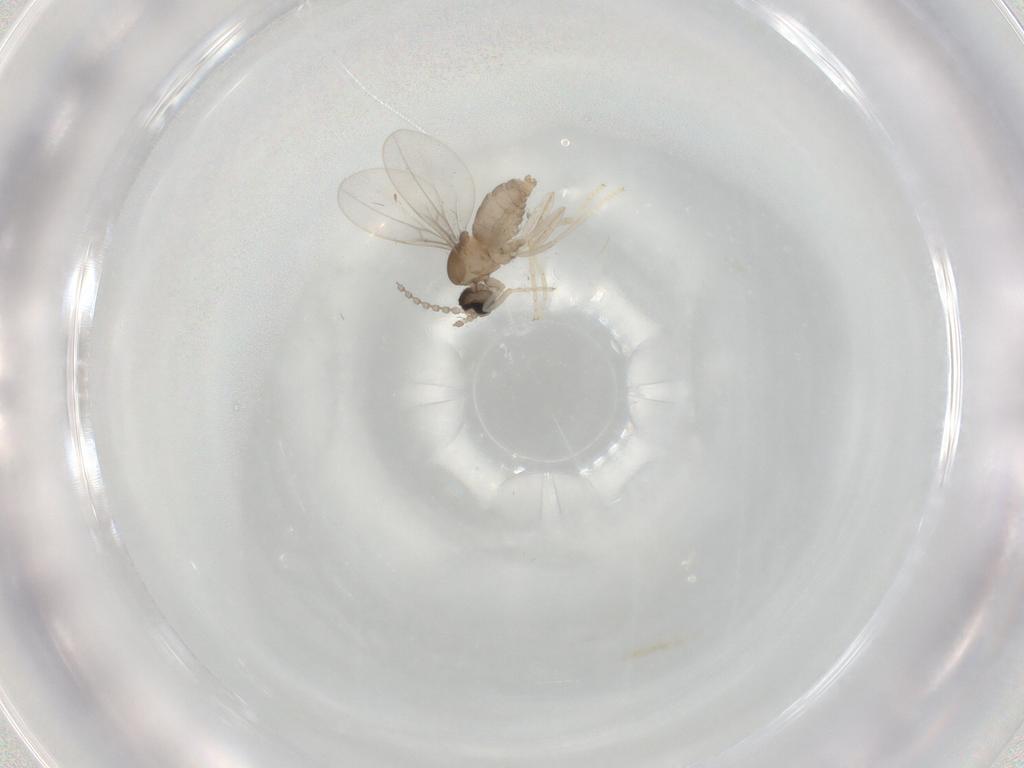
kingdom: Animalia
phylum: Arthropoda
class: Insecta
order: Diptera
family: Cecidomyiidae
